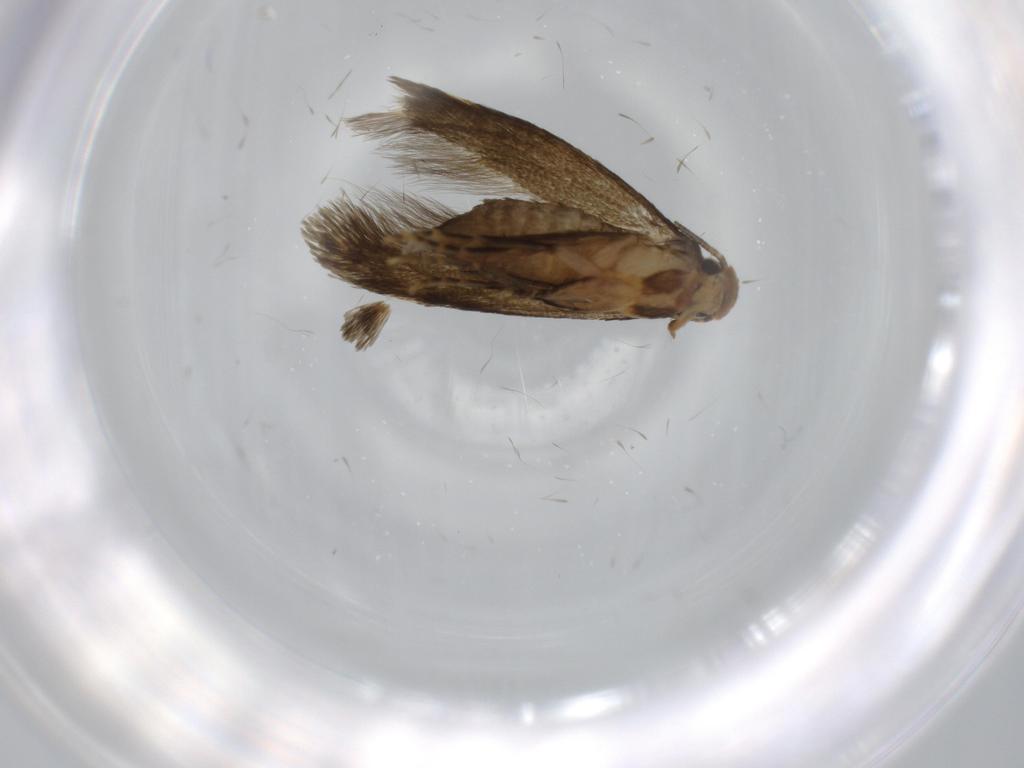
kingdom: Animalia
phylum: Arthropoda
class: Insecta
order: Lepidoptera
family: Tineidae
